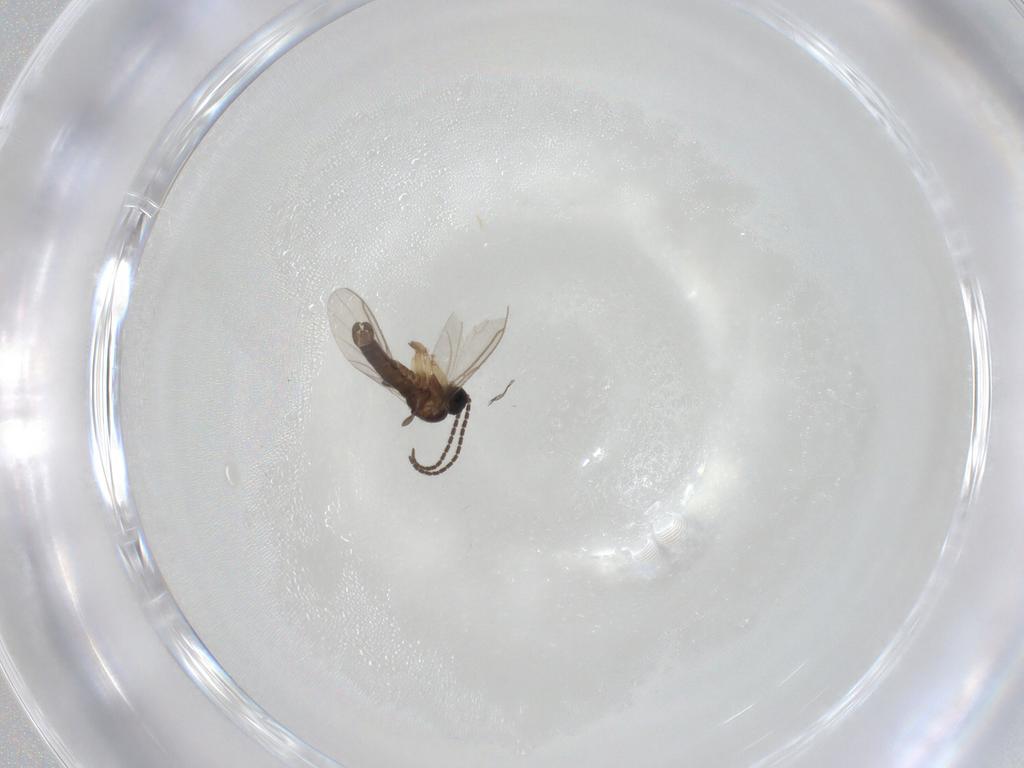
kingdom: Animalia
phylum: Arthropoda
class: Insecta
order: Diptera
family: Sciaridae
